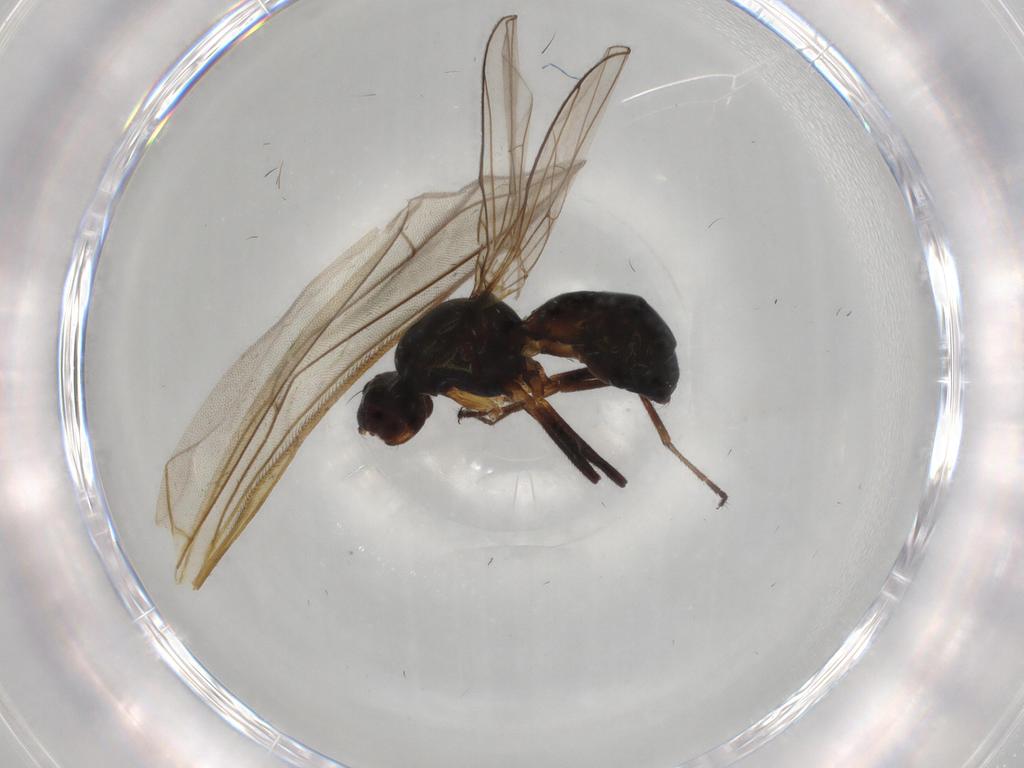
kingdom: Animalia
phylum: Arthropoda
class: Insecta
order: Diptera
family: Sepsidae
